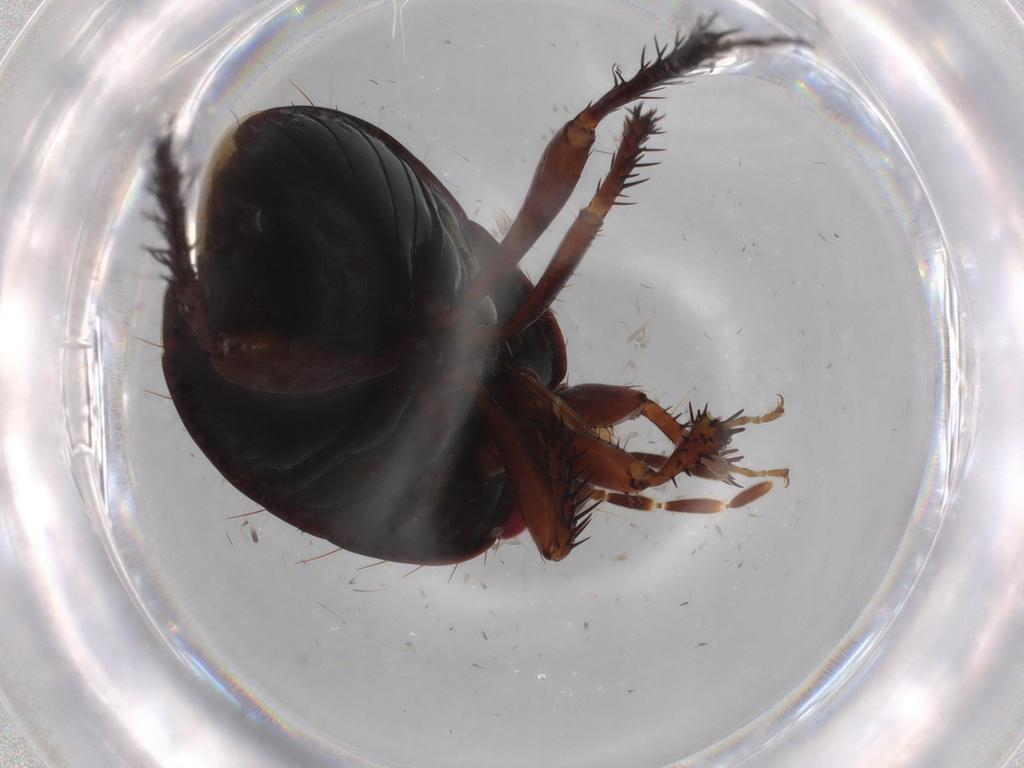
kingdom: Animalia
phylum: Arthropoda
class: Insecta
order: Hemiptera
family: Cydnidae
